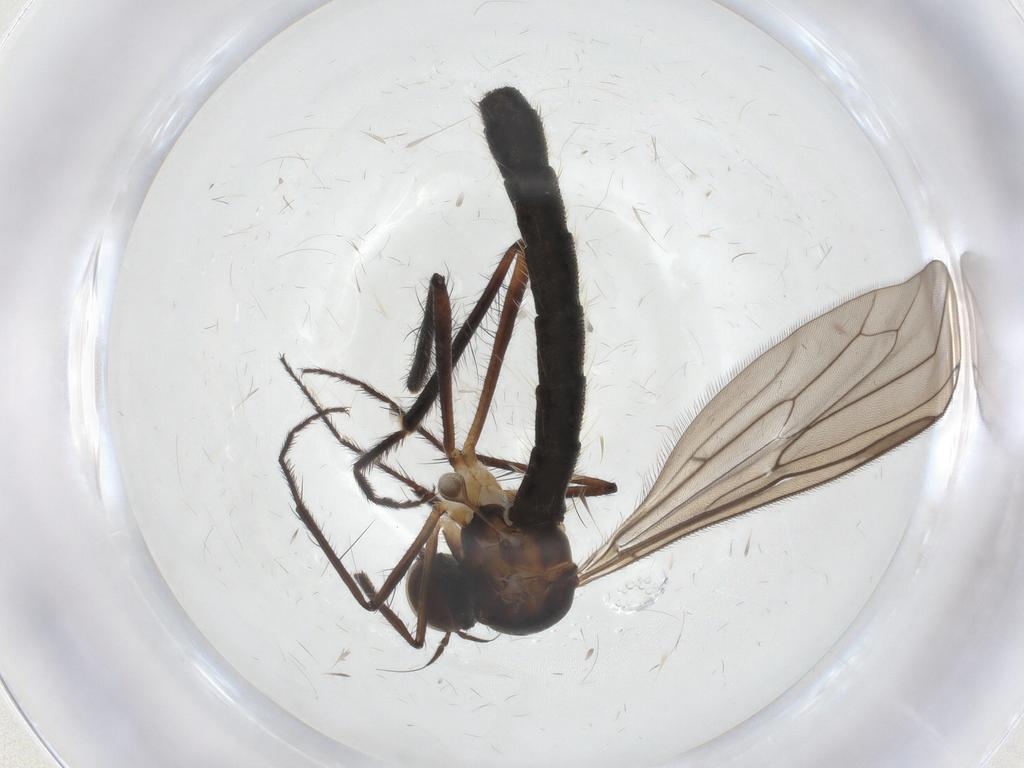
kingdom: Animalia
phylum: Arthropoda
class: Insecta
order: Diptera
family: Hybotidae
